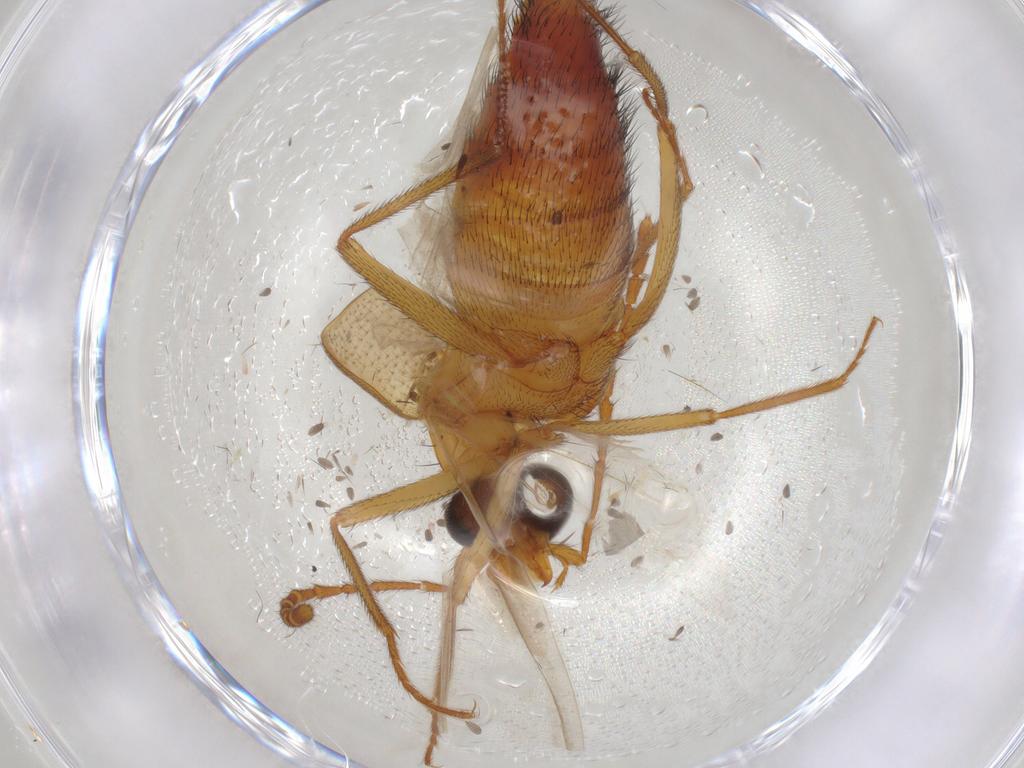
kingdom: Animalia
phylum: Arthropoda
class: Insecta
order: Coleoptera
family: Staphylinidae
